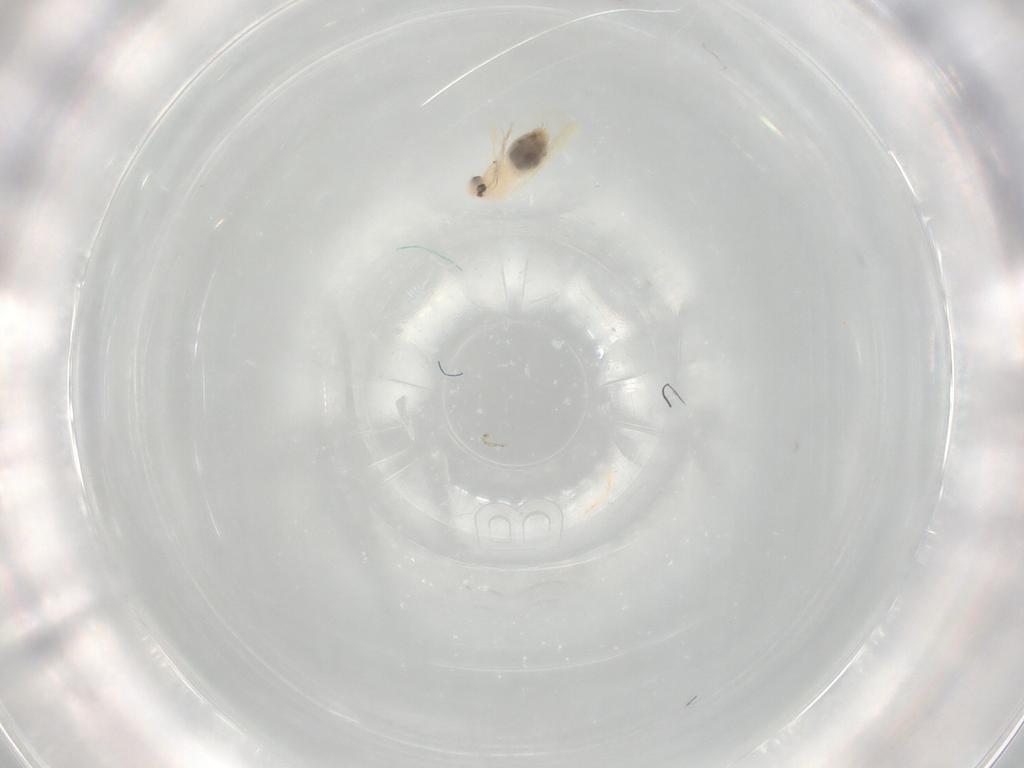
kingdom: Animalia
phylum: Arthropoda
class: Insecta
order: Hemiptera
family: Aleyrodidae
